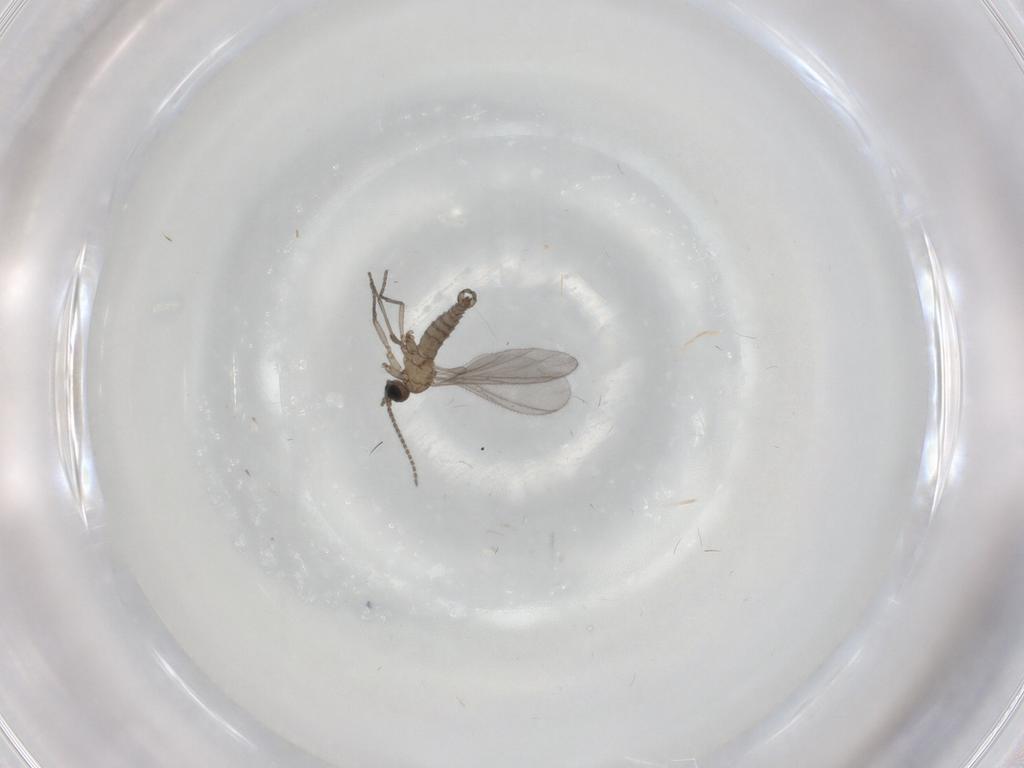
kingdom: Animalia
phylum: Arthropoda
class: Insecta
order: Diptera
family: Sciaridae
